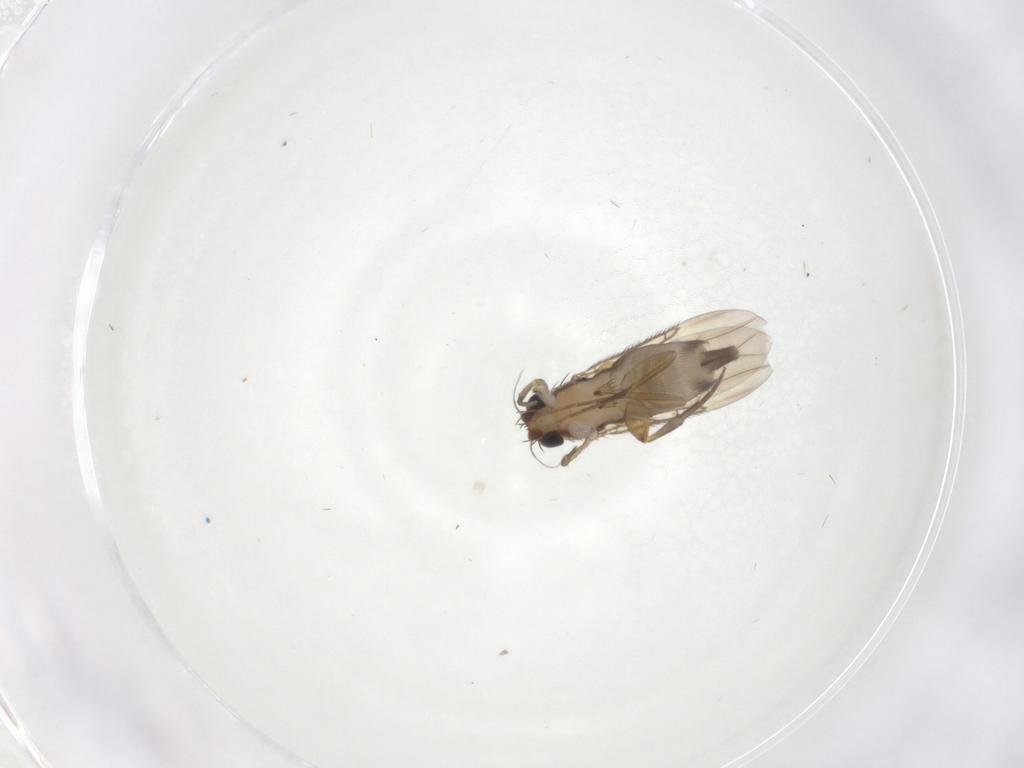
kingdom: Animalia
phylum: Arthropoda
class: Insecta
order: Diptera
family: Phoridae
